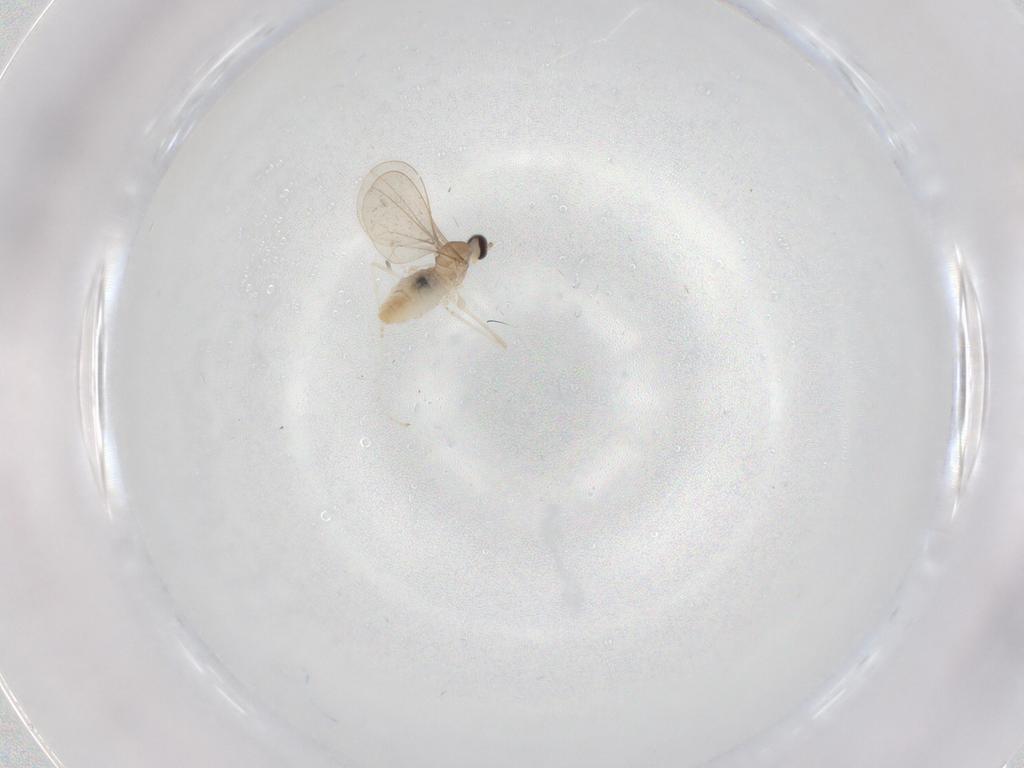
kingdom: Animalia
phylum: Arthropoda
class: Insecta
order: Diptera
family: Cecidomyiidae
